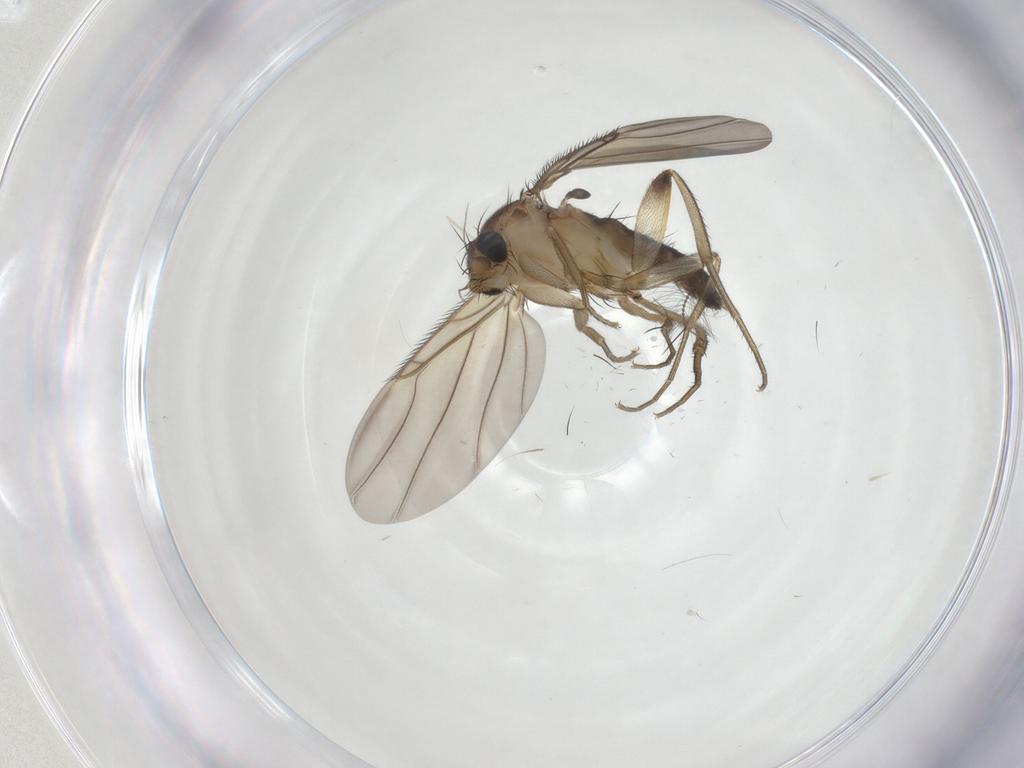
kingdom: Animalia
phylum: Arthropoda
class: Insecta
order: Diptera
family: Phoridae
